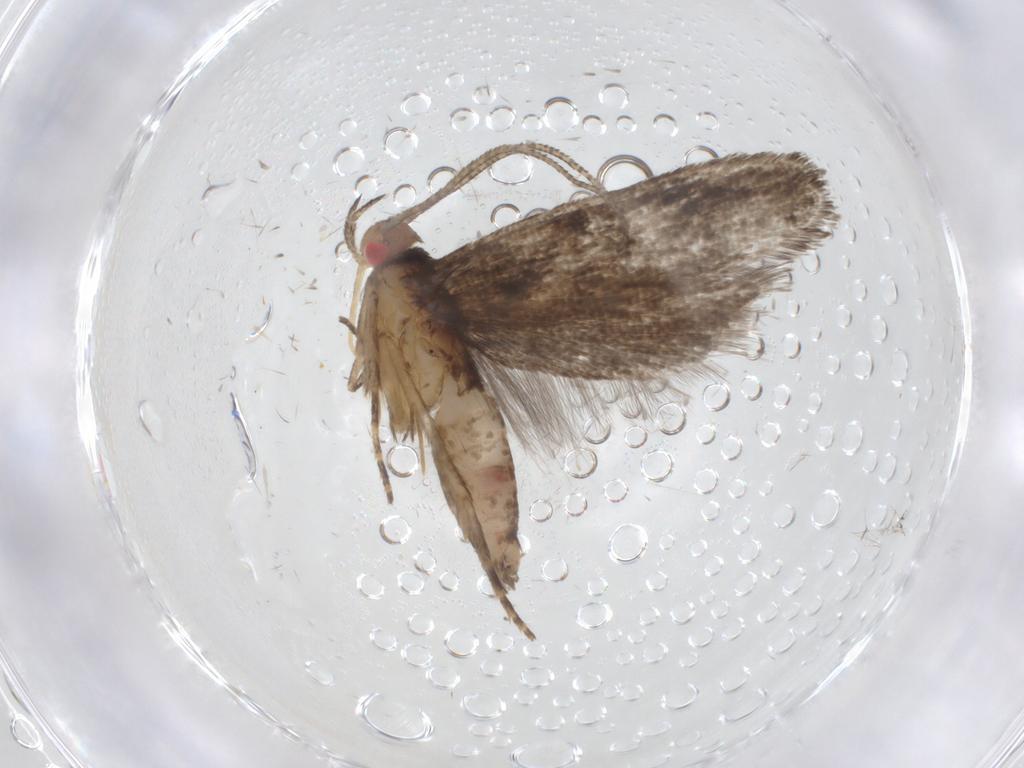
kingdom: Animalia
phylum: Arthropoda
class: Insecta
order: Lepidoptera
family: Gelechiidae
